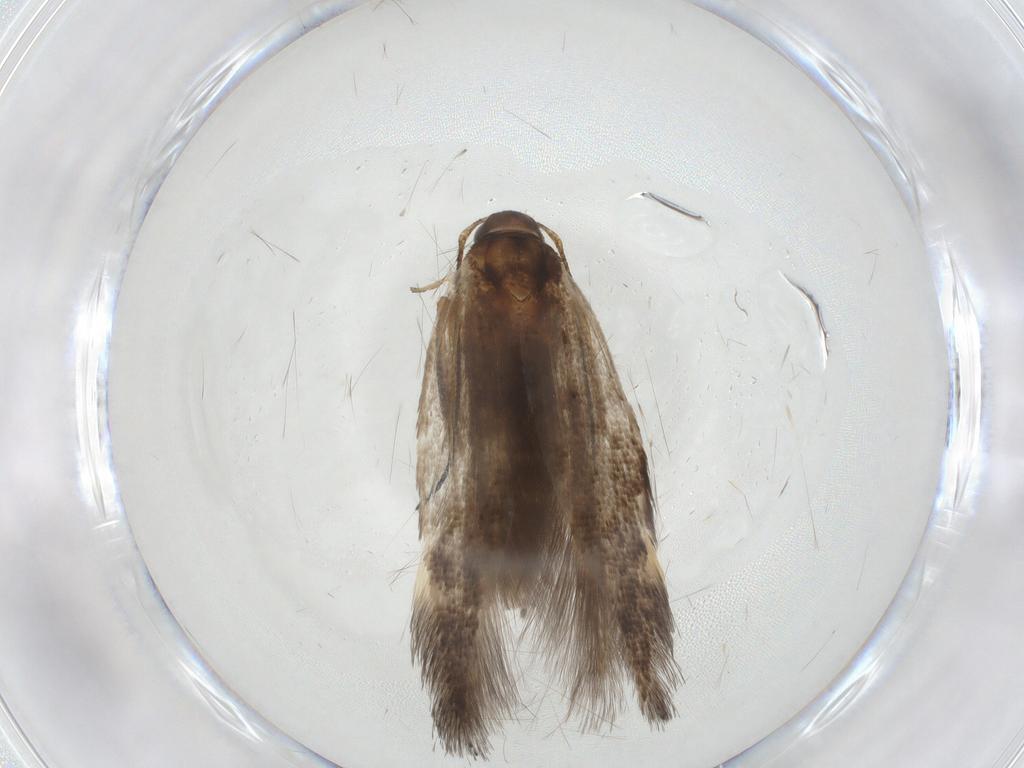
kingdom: Animalia
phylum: Arthropoda
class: Insecta
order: Lepidoptera
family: Gelechiidae
